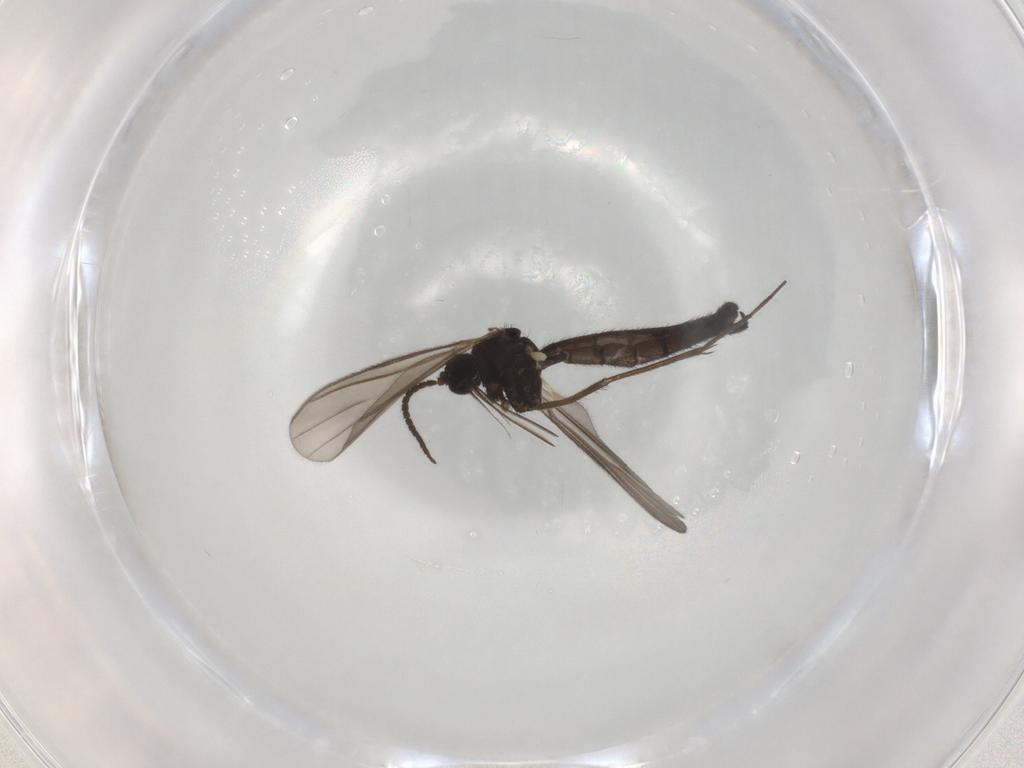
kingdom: Animalia
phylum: Arthropoda
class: Insecta
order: Diptera
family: Keroplatidae
